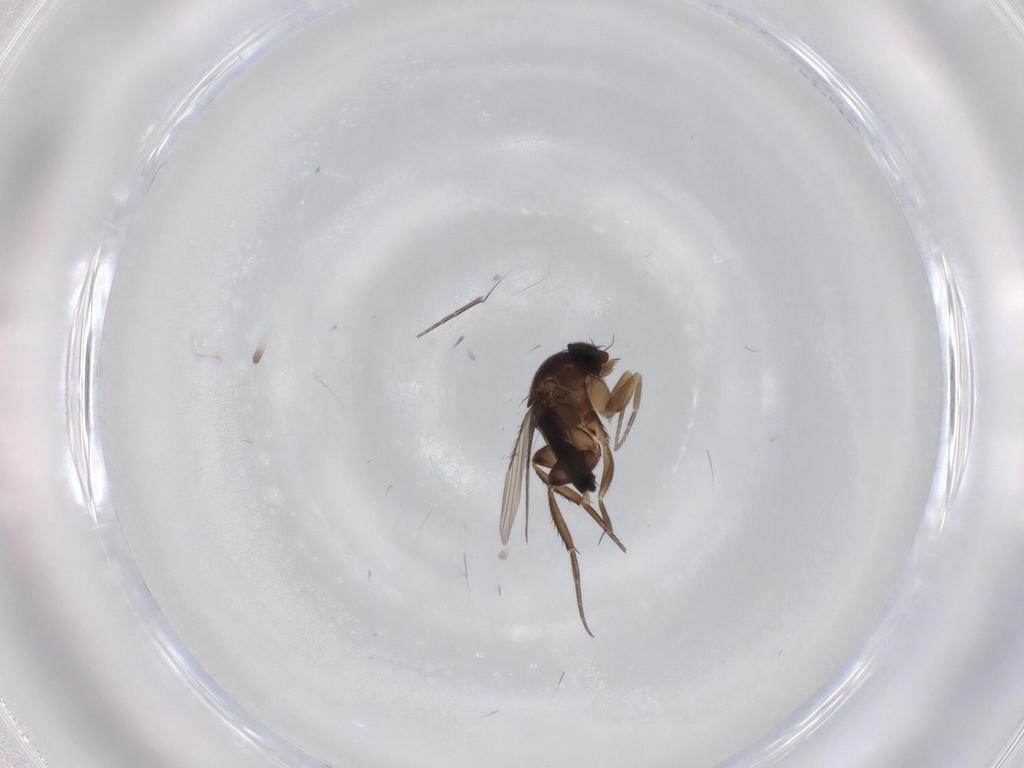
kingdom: Animalia
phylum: Arthropoda
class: Insecta
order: Diptera
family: Phoridae
